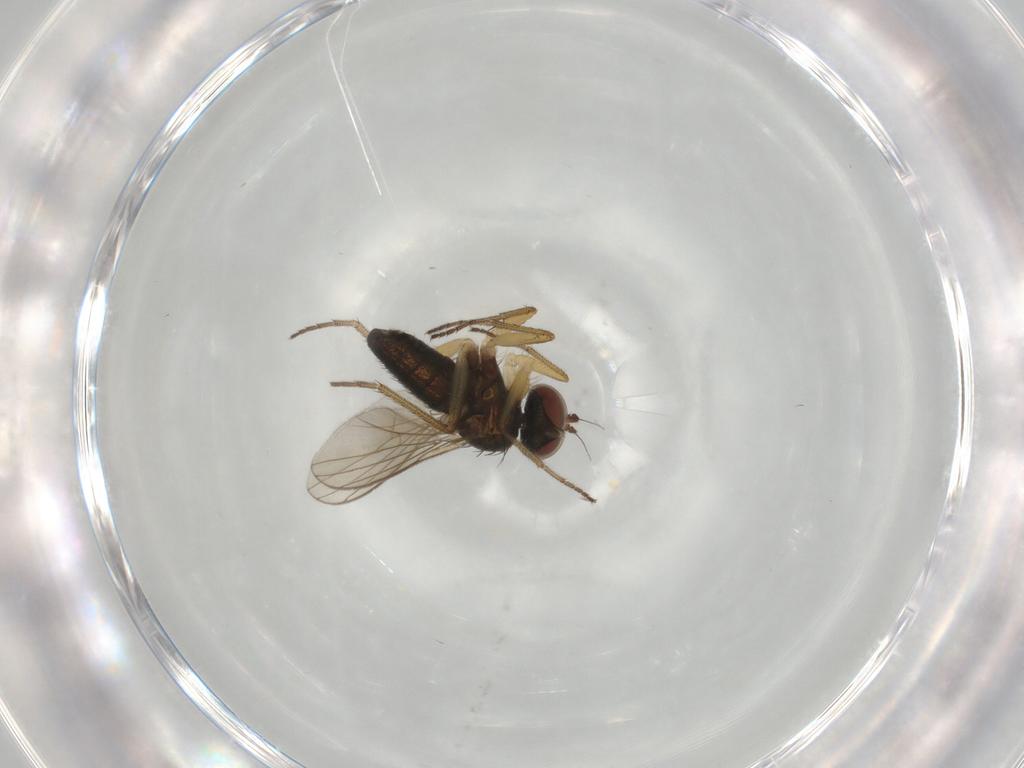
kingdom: Animalia
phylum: Arthropoda
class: Insecta
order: Diptera
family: Dolichopodidae
